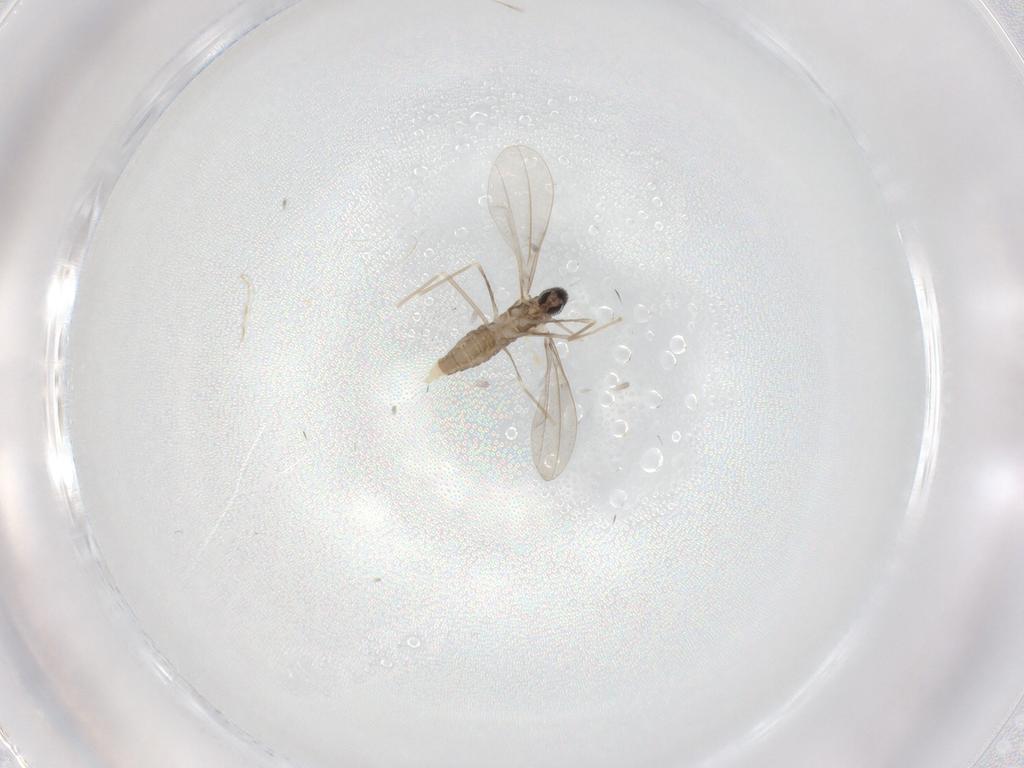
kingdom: Animalia
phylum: Arthropoda
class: Insecta
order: Diptera
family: Cecidomyiidae
